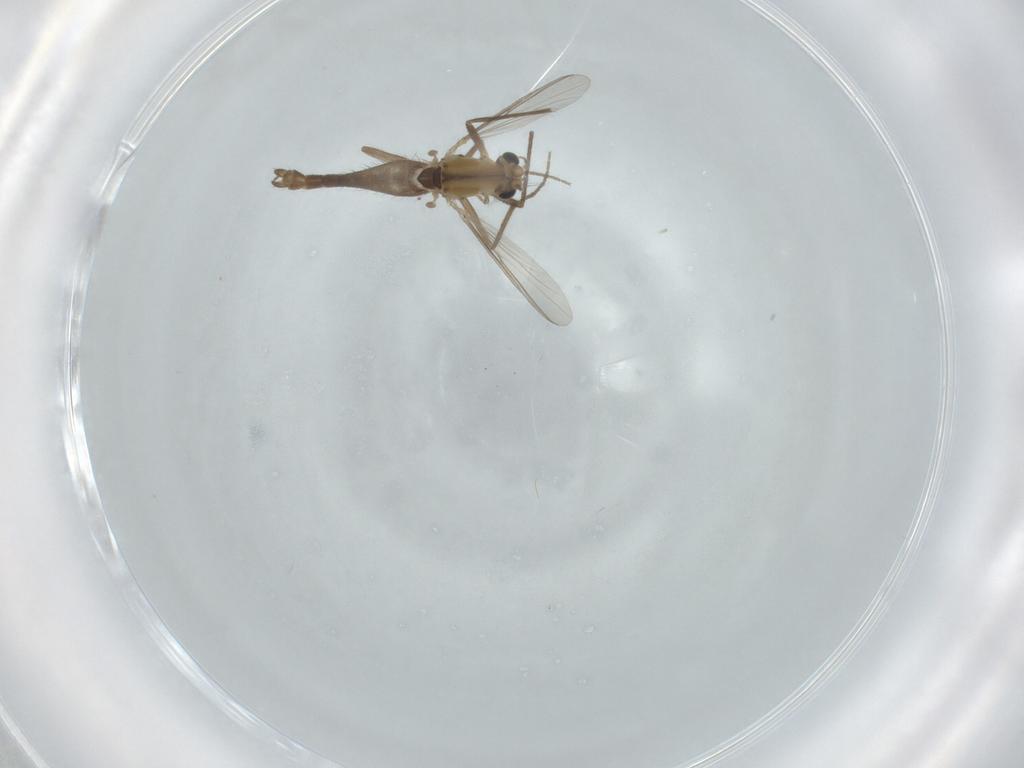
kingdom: Animalia
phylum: Arthropoda
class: Insecta
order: Diptera
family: Chironomidae
